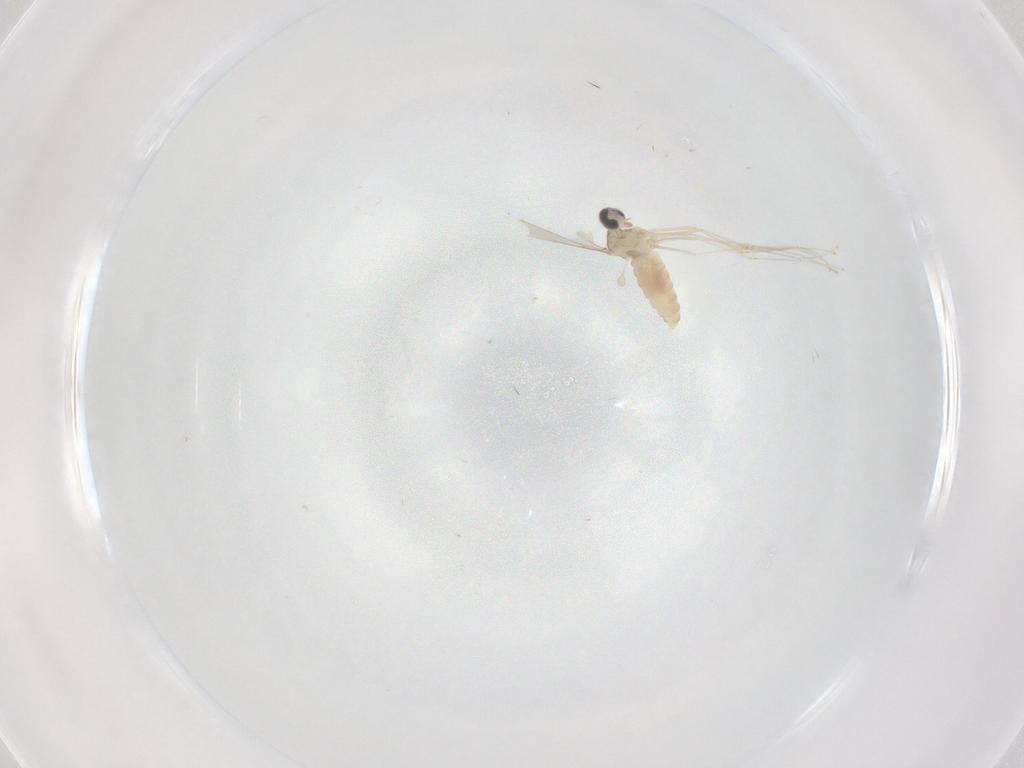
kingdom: Animalia
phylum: Arthropoda
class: Insecta
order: Diptera
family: Cecidomyiidae
